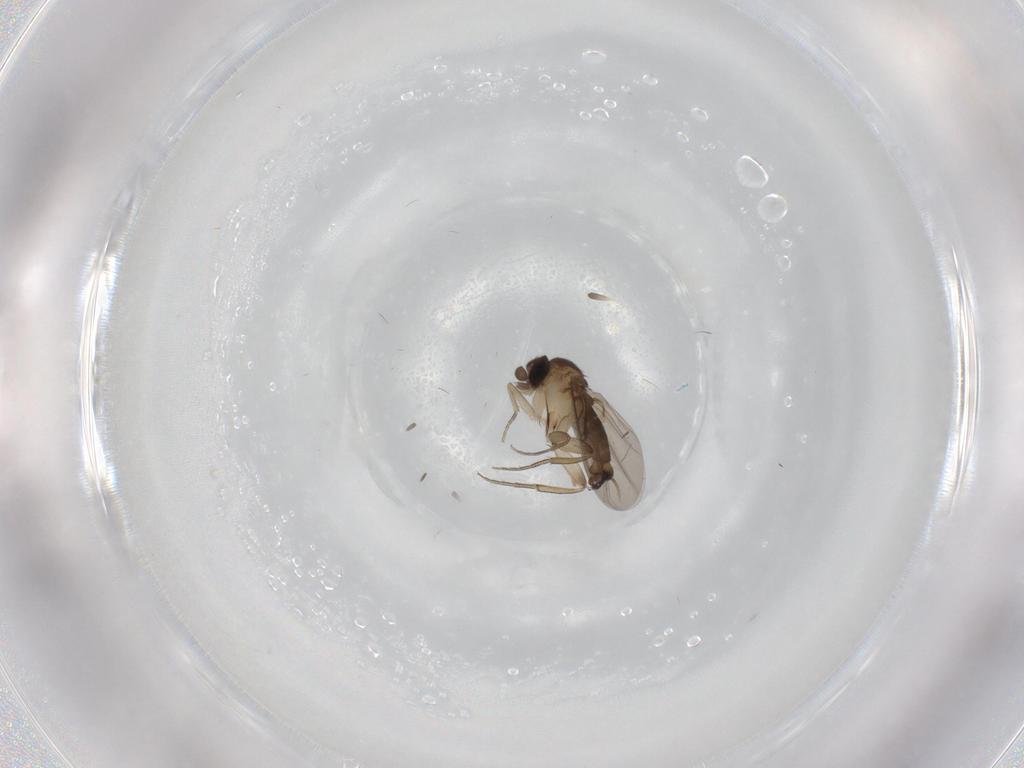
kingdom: Animalia
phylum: Arthropoda
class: Insecta
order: Diptera
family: Phoridae
